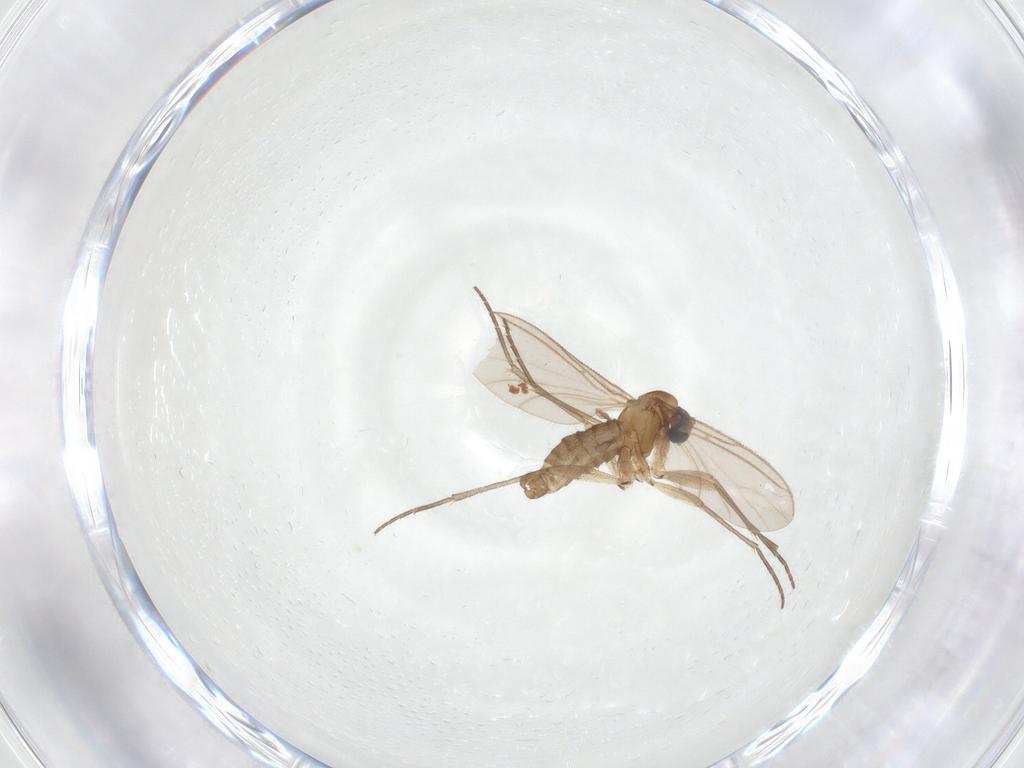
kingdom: Animalia
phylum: Arthropoda
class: Insecta
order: Diptera
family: Sciaridae
